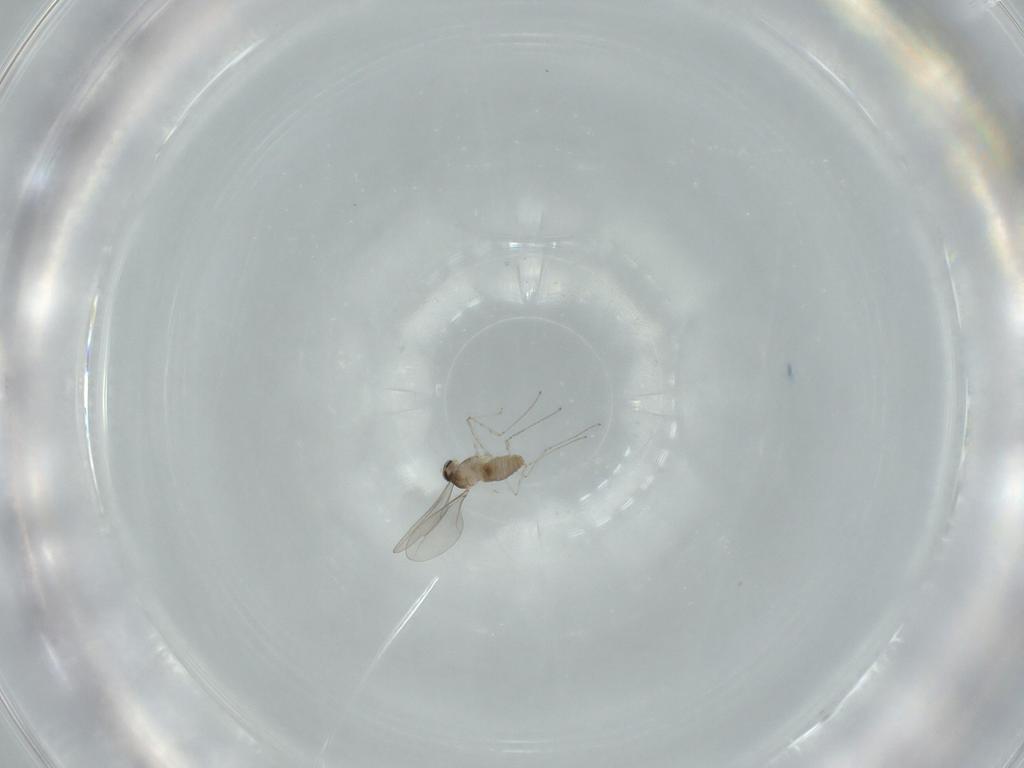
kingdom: Animalia
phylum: Arthropoda
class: Insecta
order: Diptera
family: Cecidomyiidae
